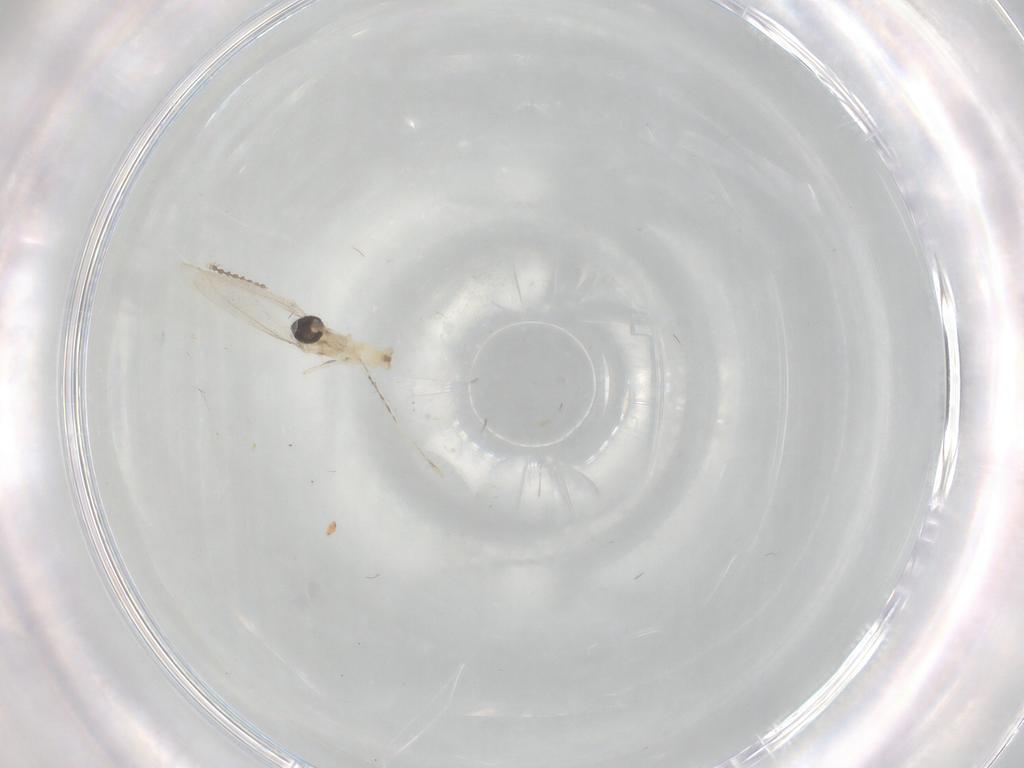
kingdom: Animalia
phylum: Arthropoda
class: Insecta
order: Diptera
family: Cecidomyiidae
